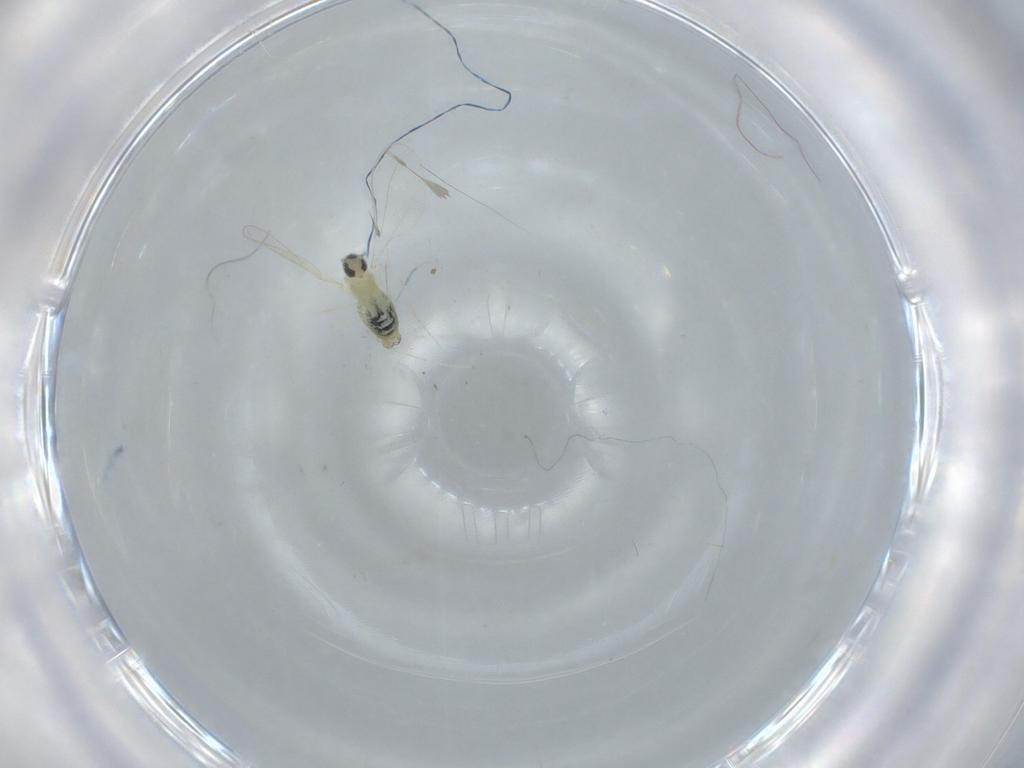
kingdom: Animalia
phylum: Arthropoda
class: Insecta
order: Diptera
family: Cecidomyiidae
